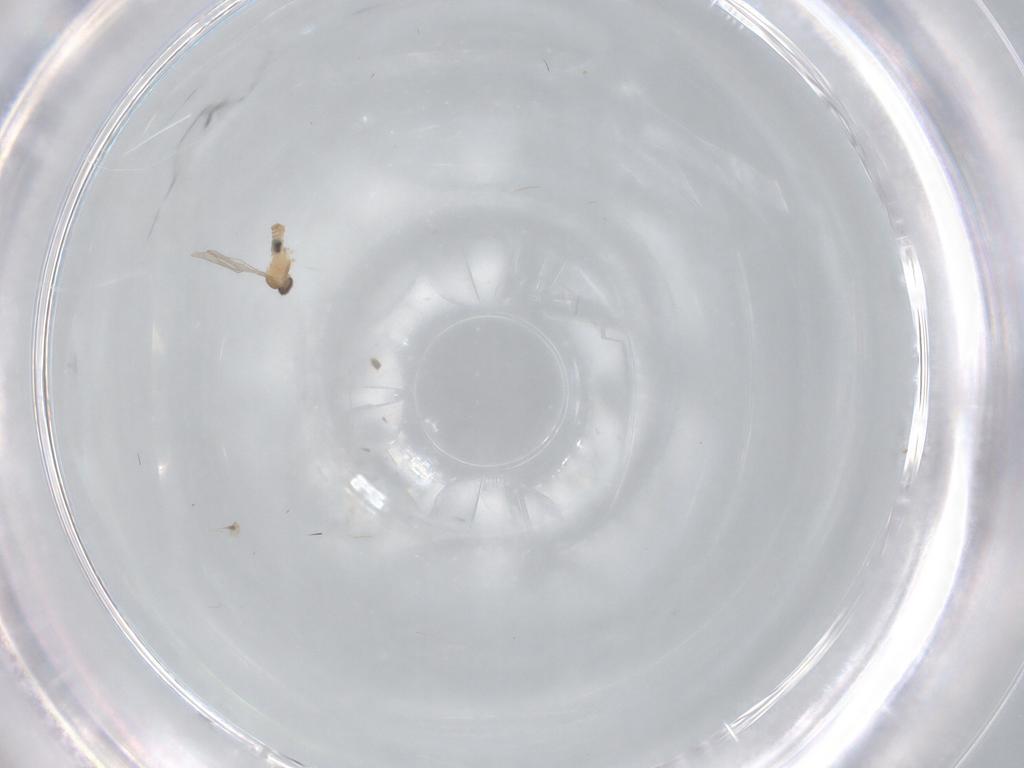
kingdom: Animalia
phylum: Arthropoda
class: Insecta
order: Diptera
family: Cecidomyiidae
